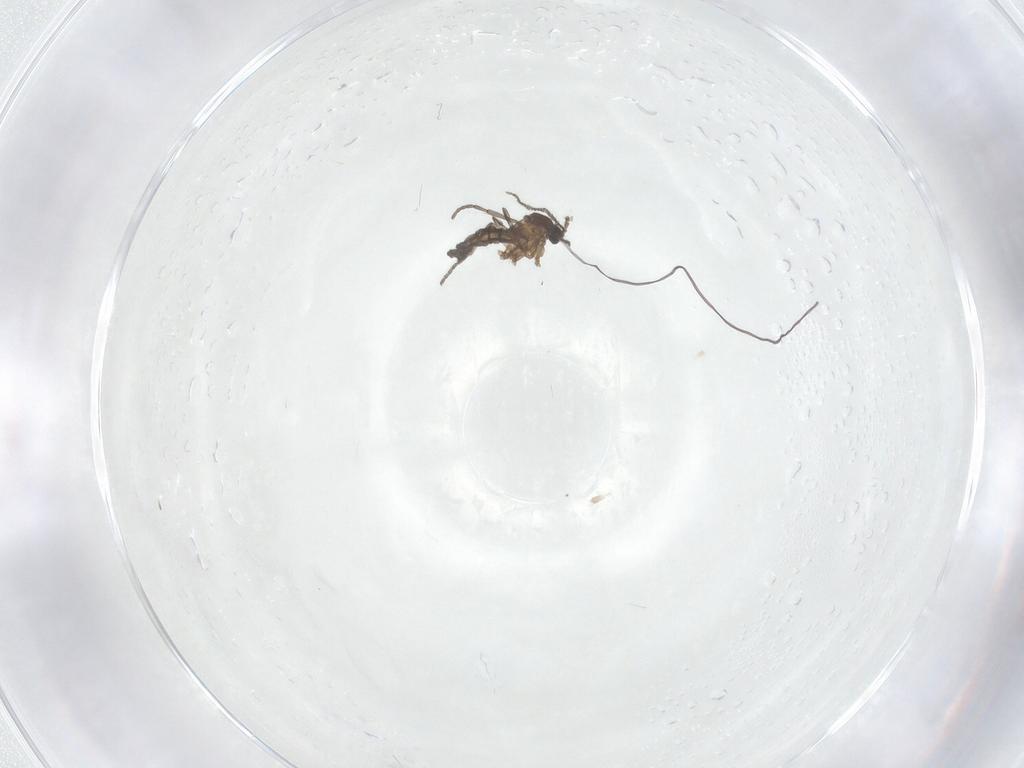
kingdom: Animalia
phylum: Arthropoda
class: Insecta
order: Diptera
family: Sciaridae
